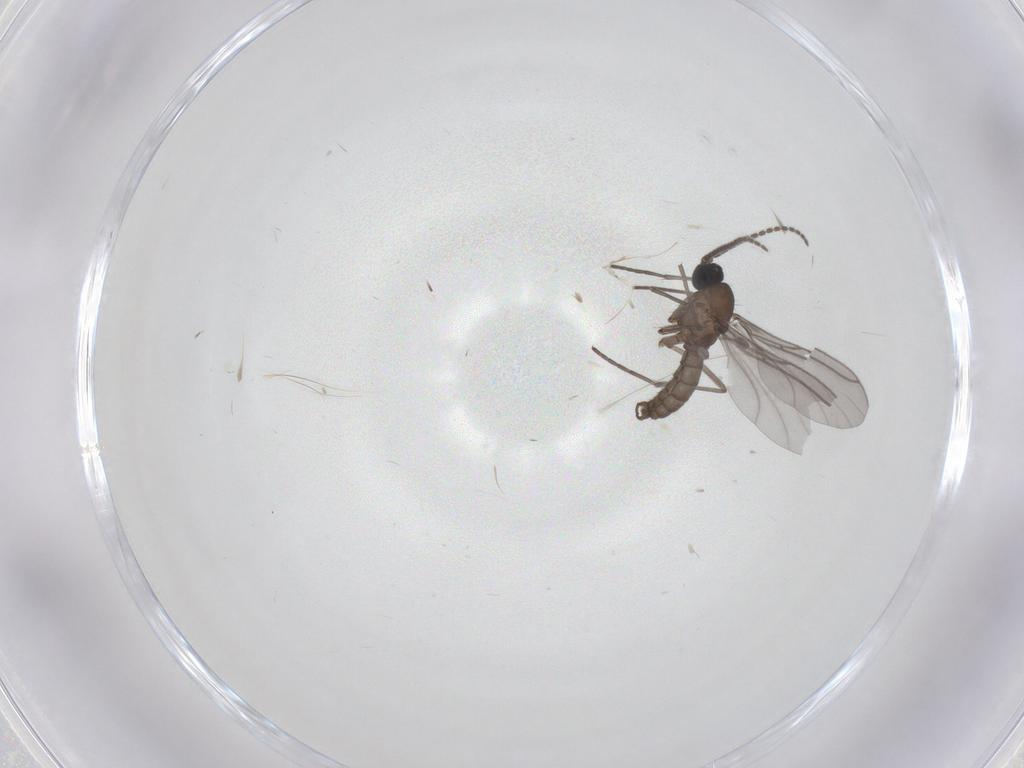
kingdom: Animalia
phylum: Arthropoda
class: Insecta
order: Diptera
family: Sciaridae
